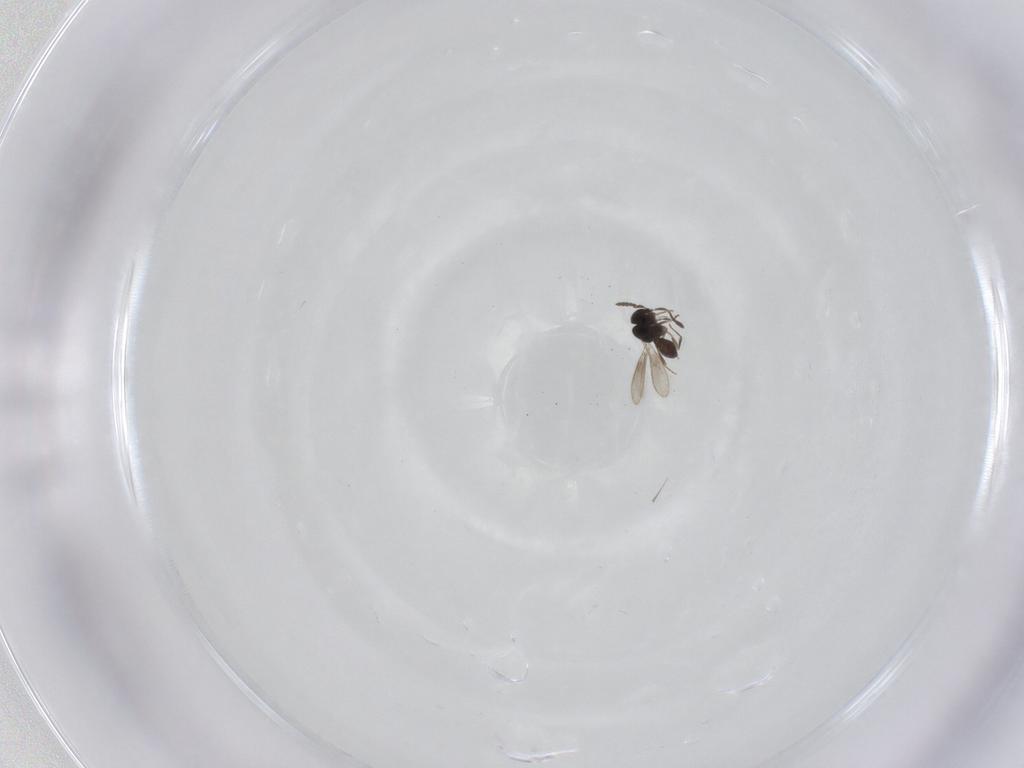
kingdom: Animalia
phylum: Arthropoda
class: Insecta
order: Hymenoptera
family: Scelionidae
